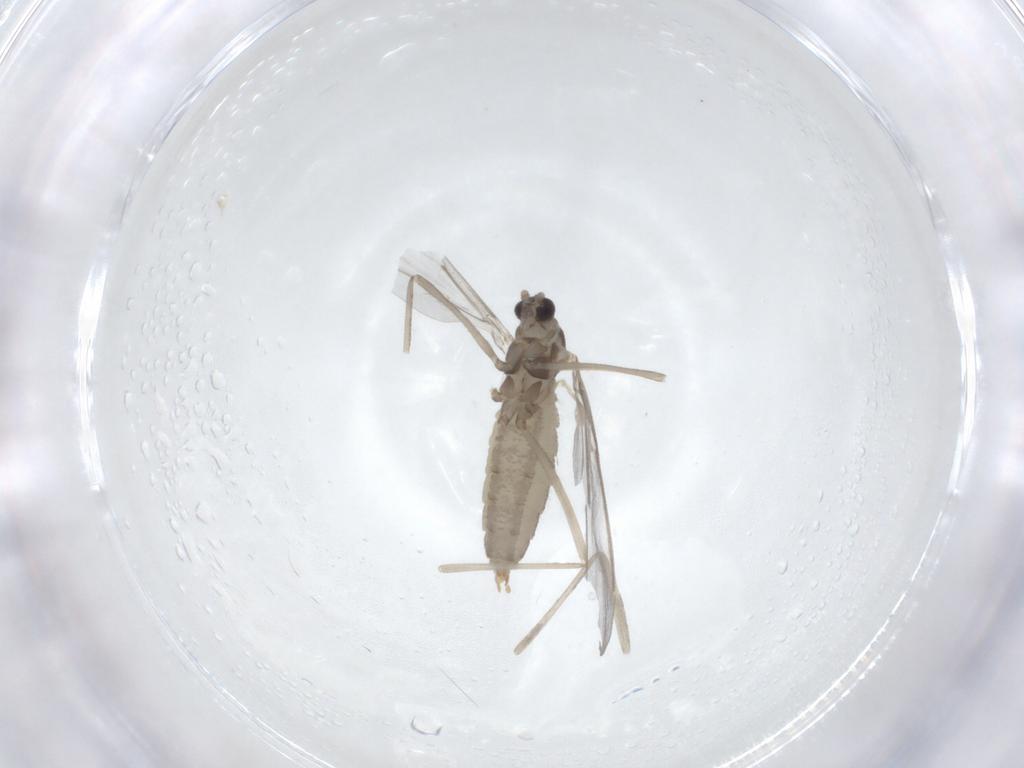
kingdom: Animalia
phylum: Arthropoda
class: Insecta
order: Diptera
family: Cecidomyiidae
